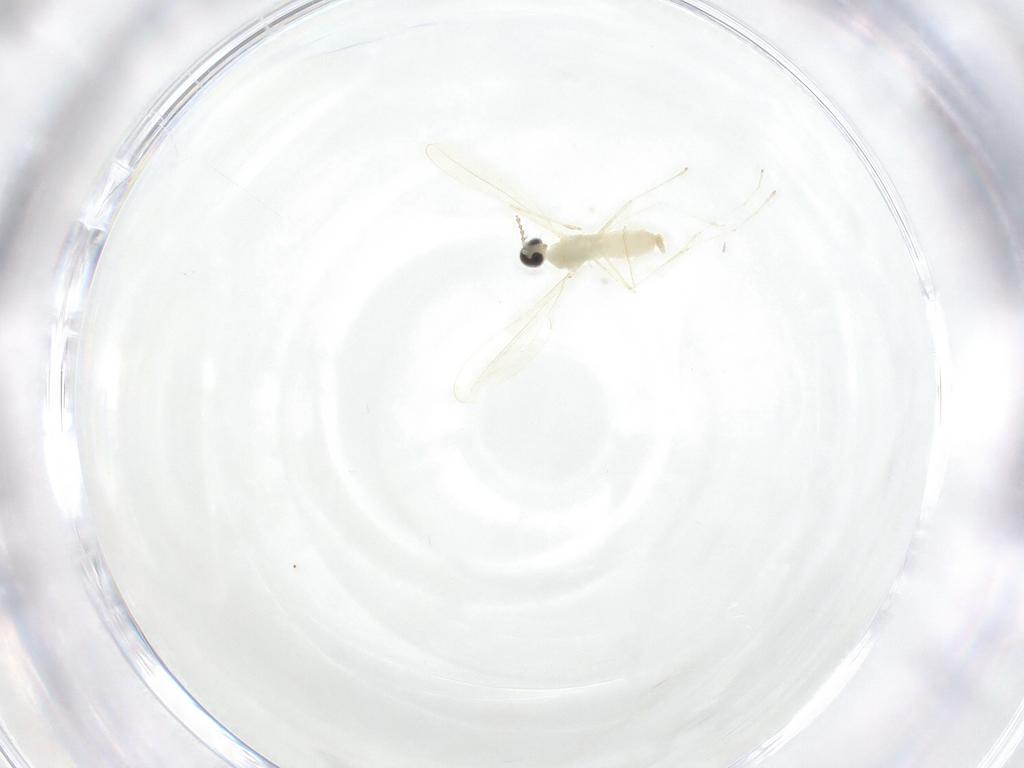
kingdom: Animalia
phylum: Arthropoda
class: Insecta
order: Diptera
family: Cecidomyiidae
